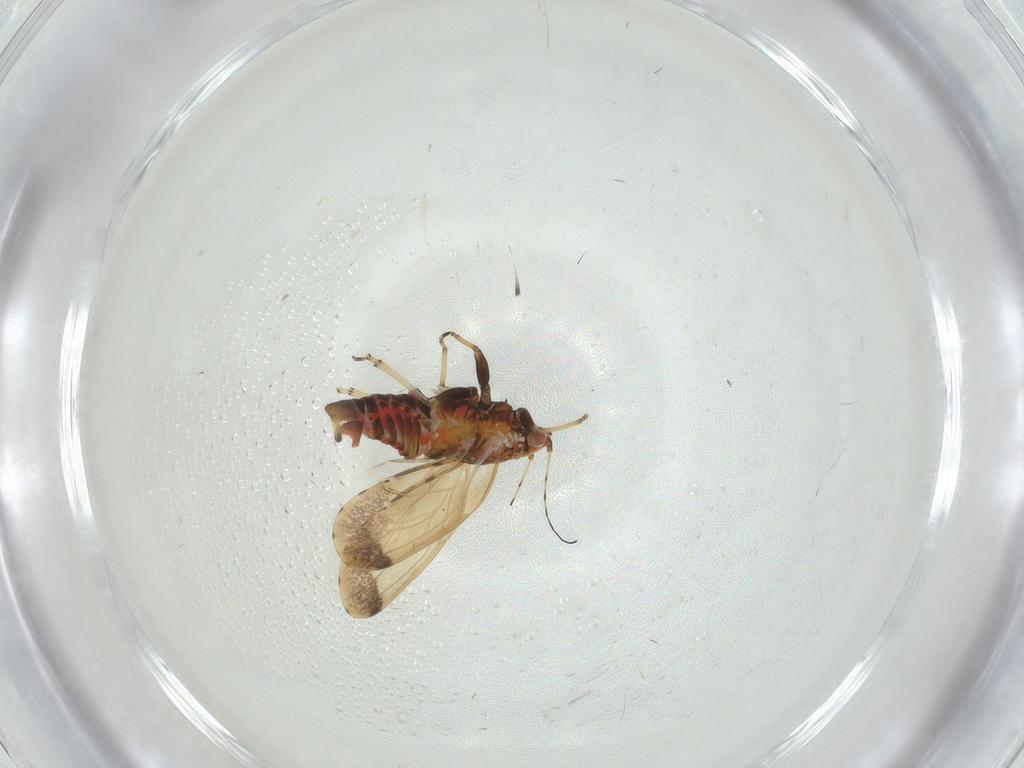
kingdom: Animalia
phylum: Arthropoda
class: Insecta
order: Hemiptera
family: Psyllidae
